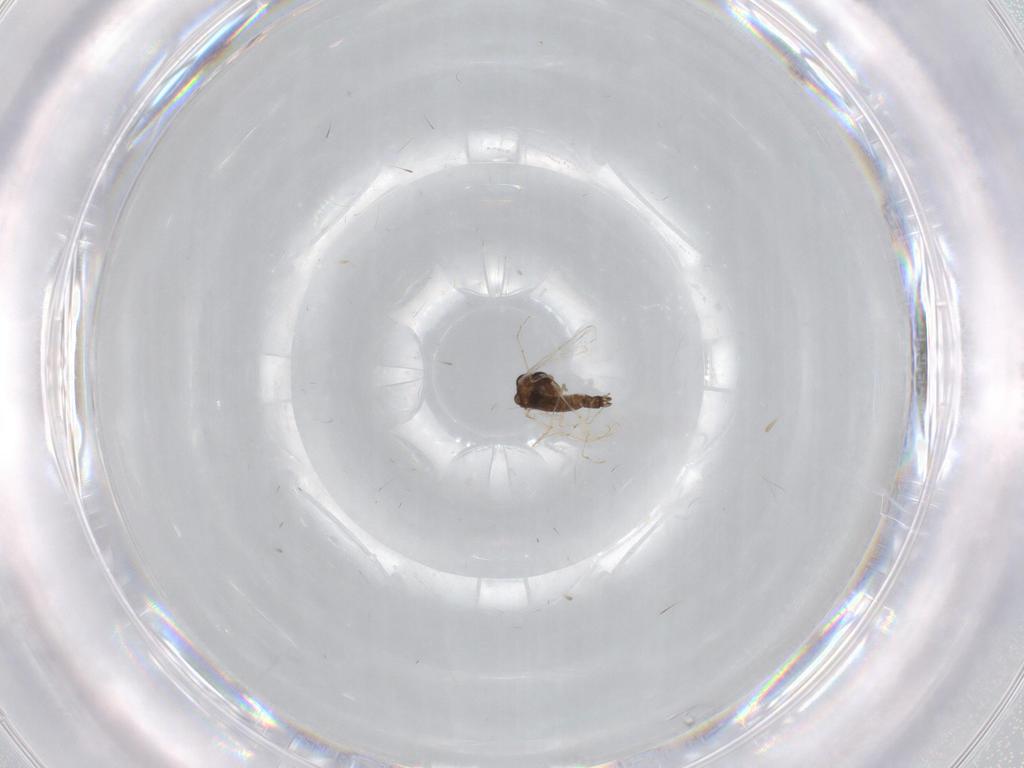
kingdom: Animalia
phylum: Arthropoda
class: Insecta
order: Diptera
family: Chironomidae
